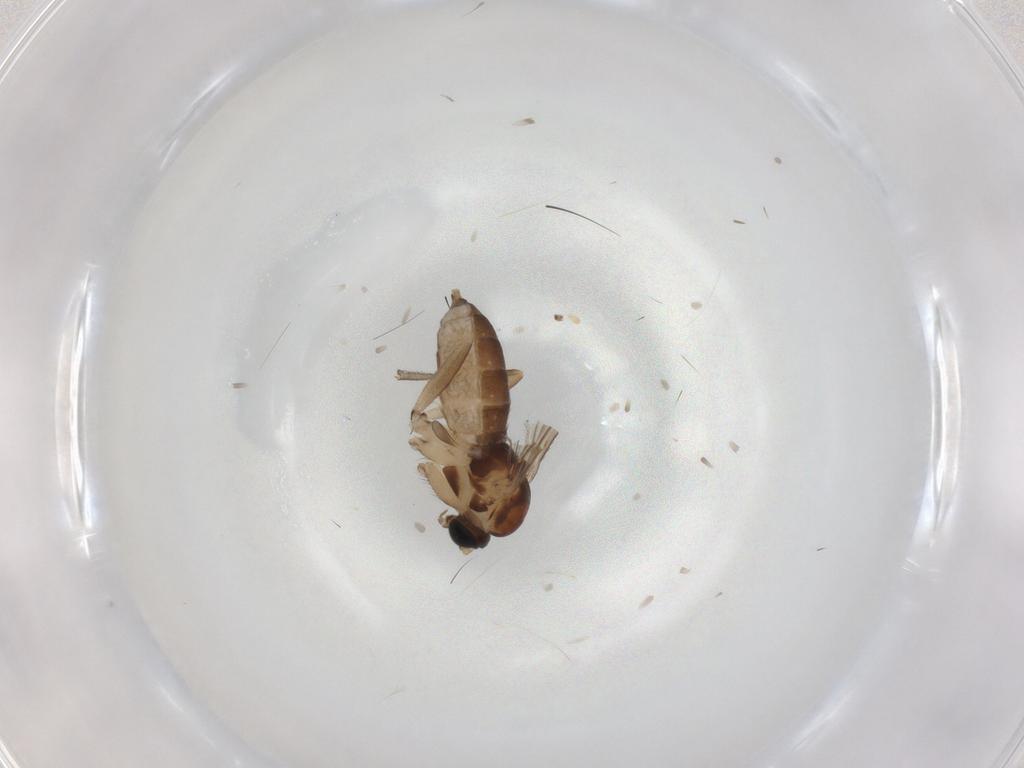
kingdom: Animalia
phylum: Arthropoda
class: Insecta
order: Diptera
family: Sciaridae
